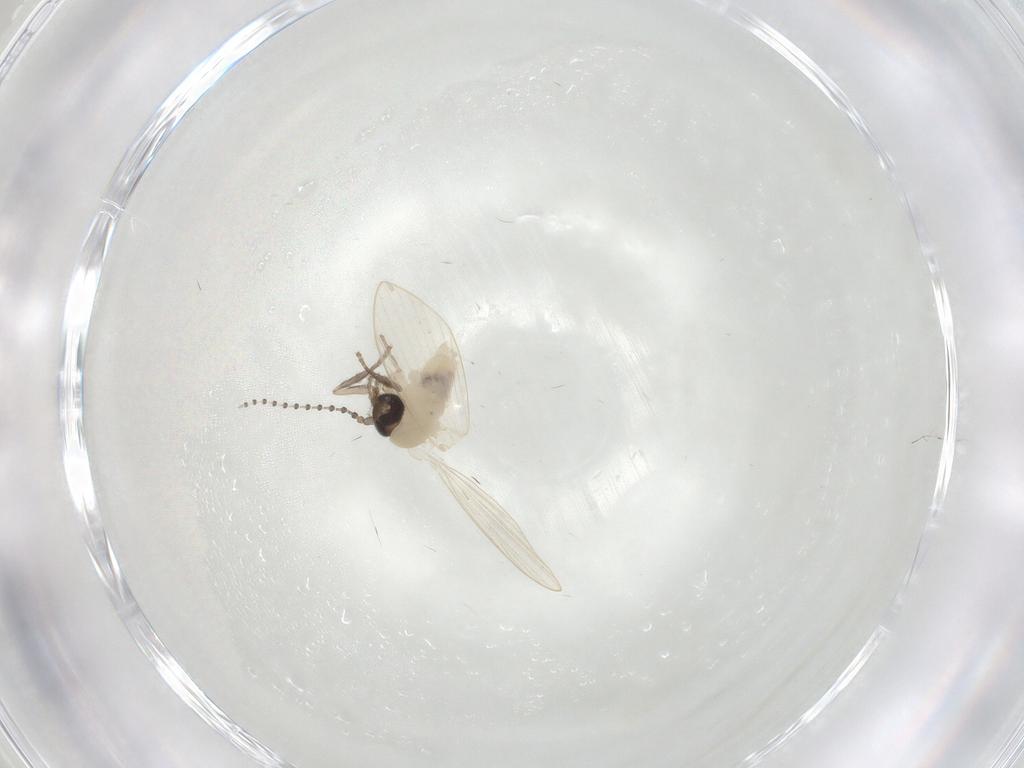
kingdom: Animalia
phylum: Arthropoda
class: Insecta
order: Diptera
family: Psychodidae
